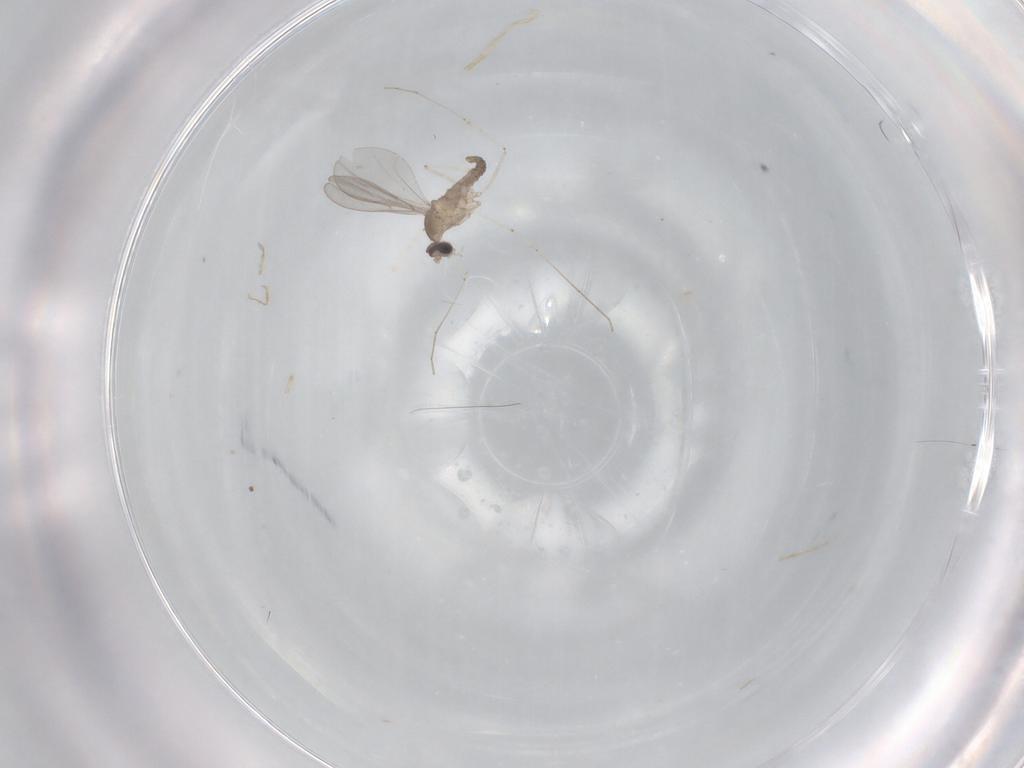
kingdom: Animalia
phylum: Arthropoda
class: Insecta
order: Diptera
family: Cecidomyiidae
